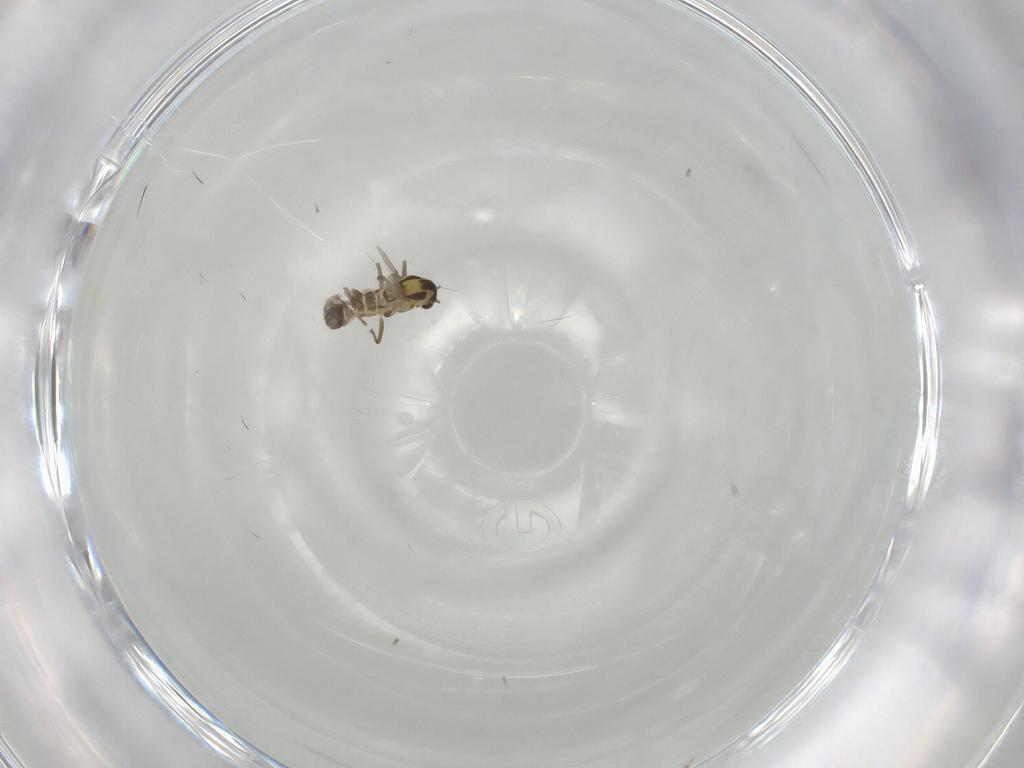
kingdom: Animalia
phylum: Arthropoda
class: Insecta
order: Diptera
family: Chironomidae
